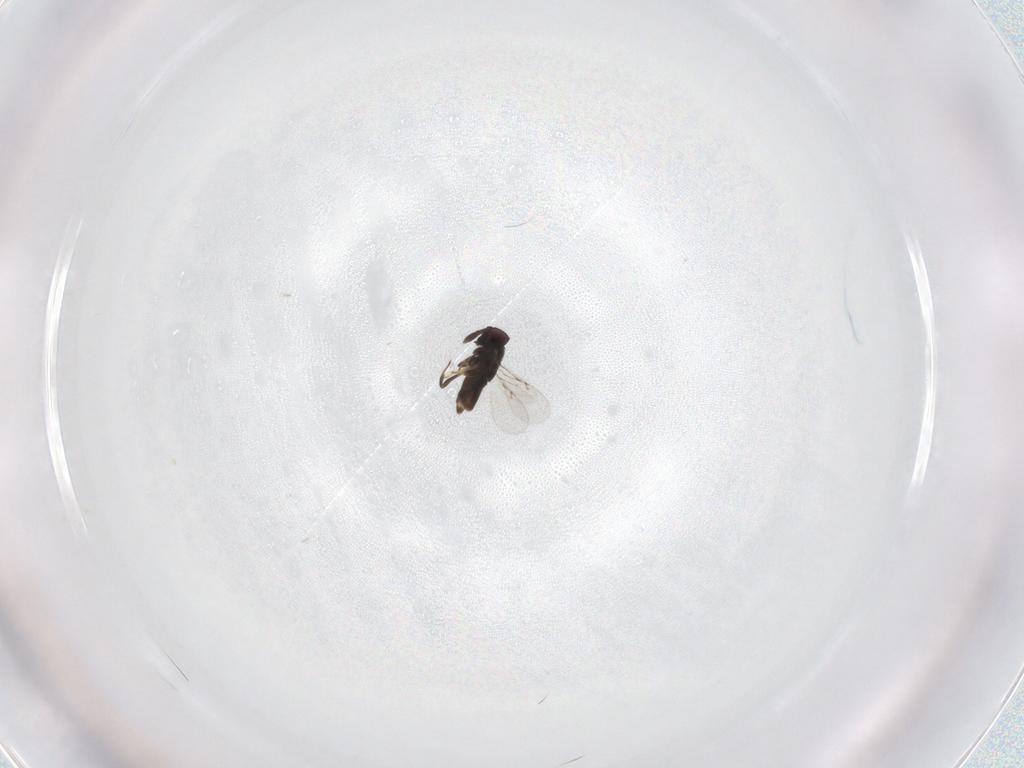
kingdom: Animalia
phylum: Arthropoda
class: Insecta
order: Hymenoptera
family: Encyrtidae
